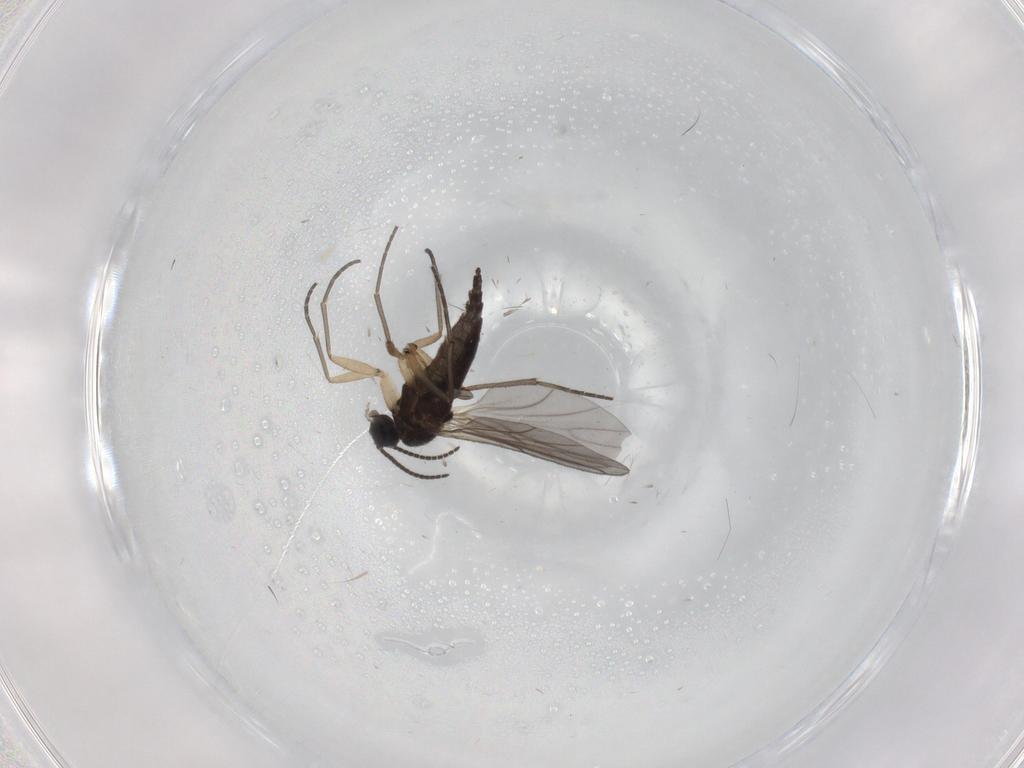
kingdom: Animalia
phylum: Arthropoda
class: Insecta
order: Diptera
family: Sciaridae
